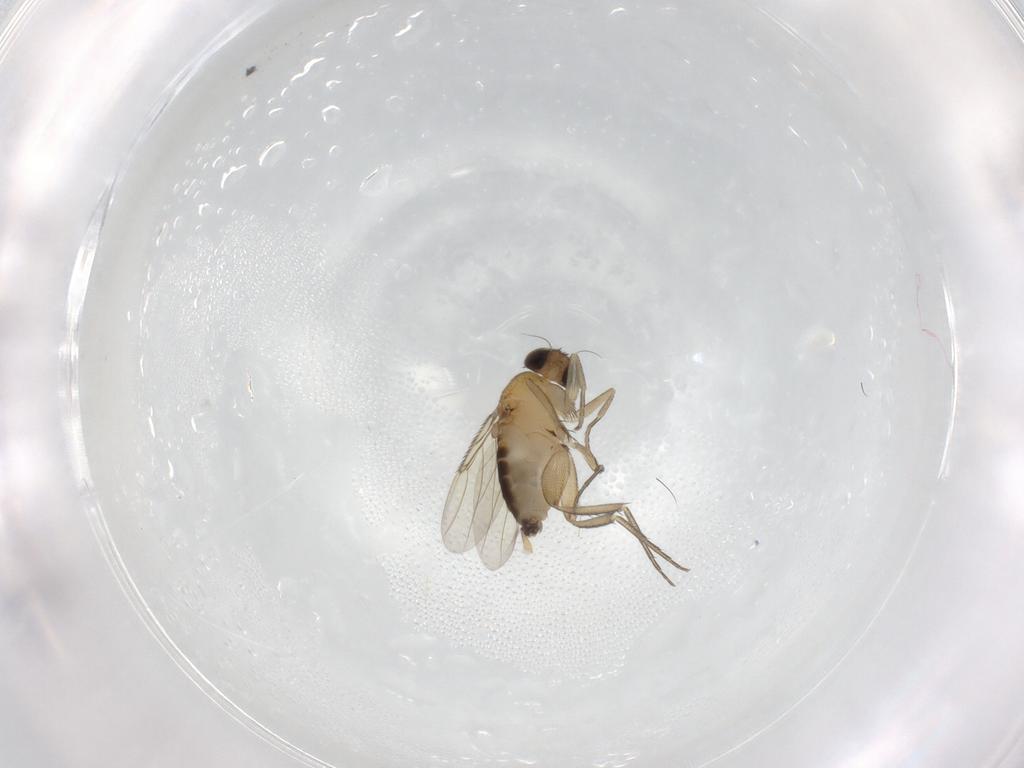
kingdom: Animalia
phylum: Arthropoda
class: Insecta
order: Diptera
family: Phoridae
